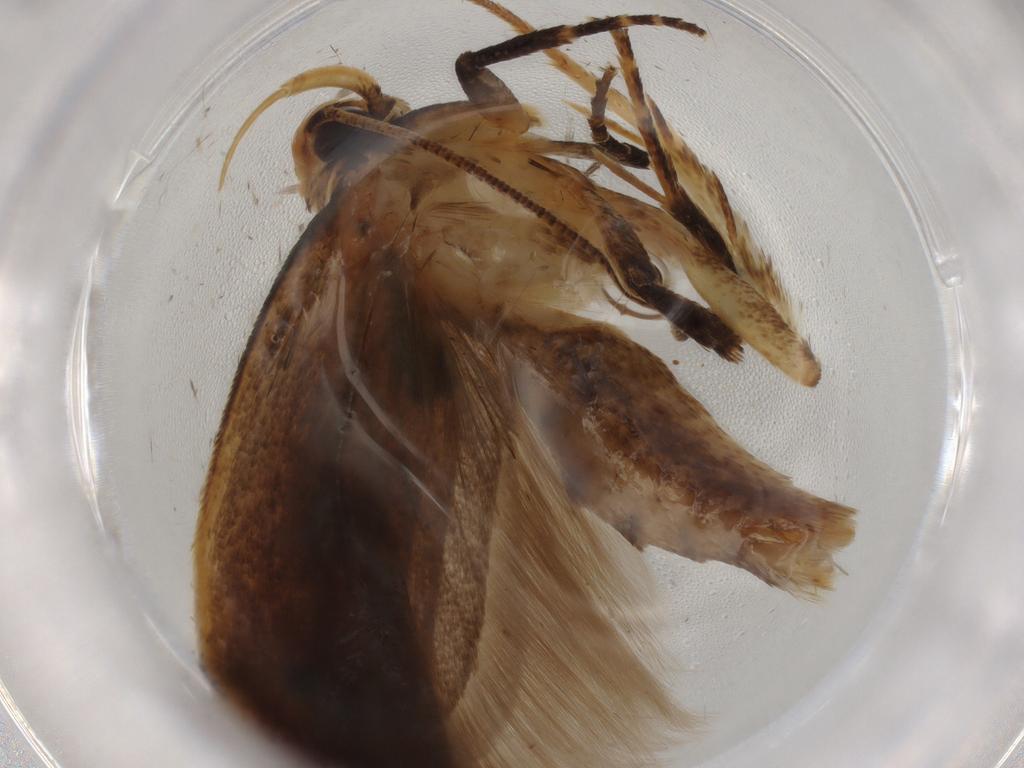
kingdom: Animalia
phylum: Arthropoda
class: Insecta
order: Lepidoptera
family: Gelechiidae
